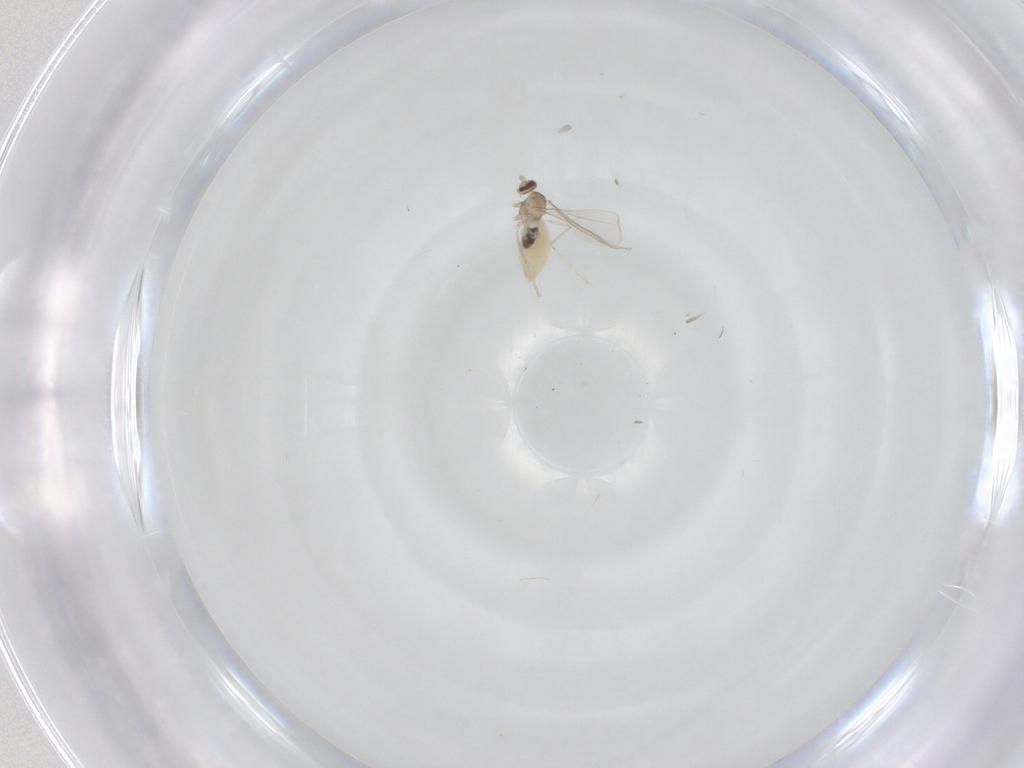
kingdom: Animalia
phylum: Arthropoda
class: Insecta
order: Diptera
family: Cecidomyiidae
